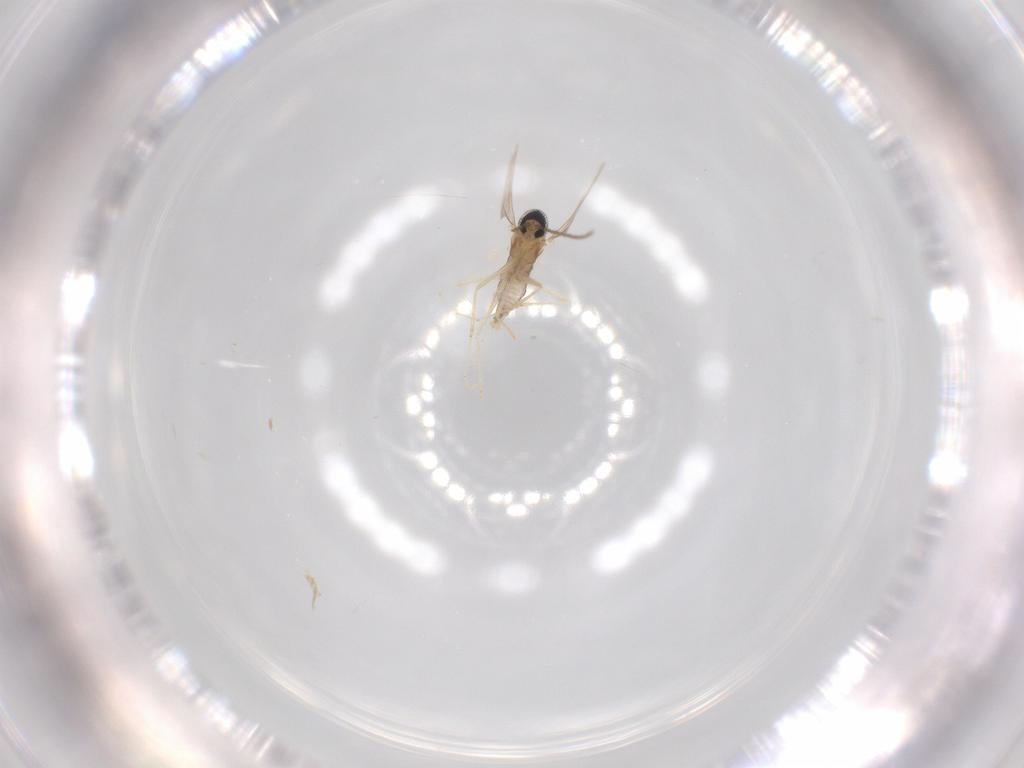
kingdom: Animalia
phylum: Arthropoda
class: Insecta
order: Diptera
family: Cecidomyiidae
